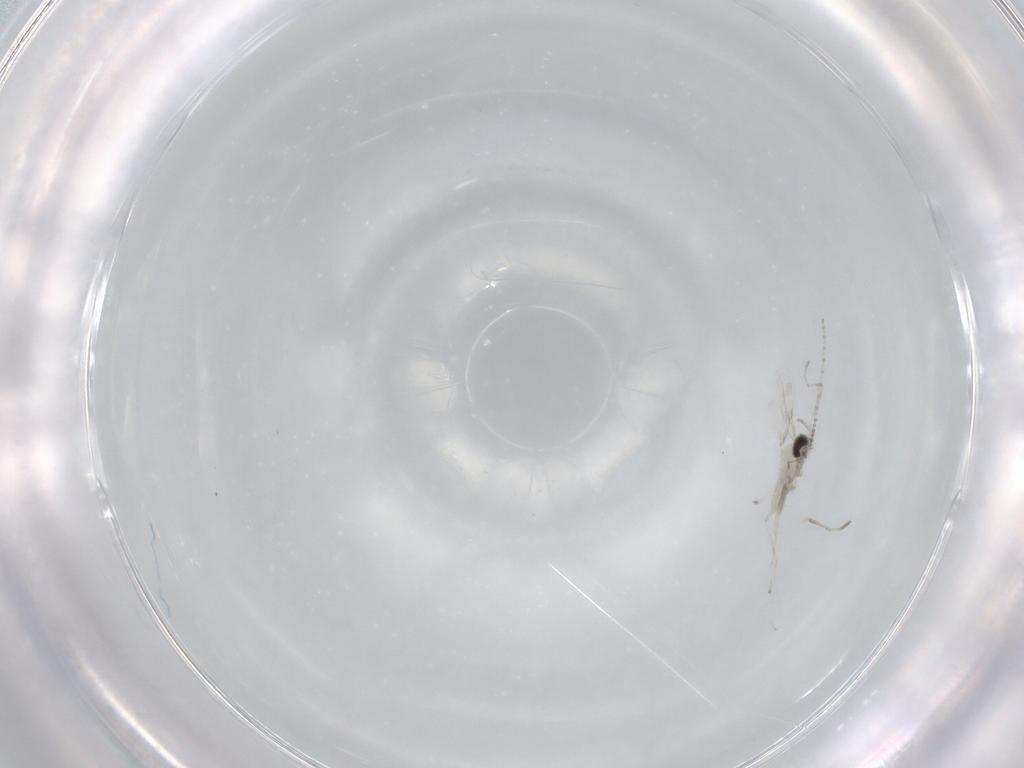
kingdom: Animalia
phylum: Arthropoda
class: Insecta
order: Diptera
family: Cecidomyiidae
